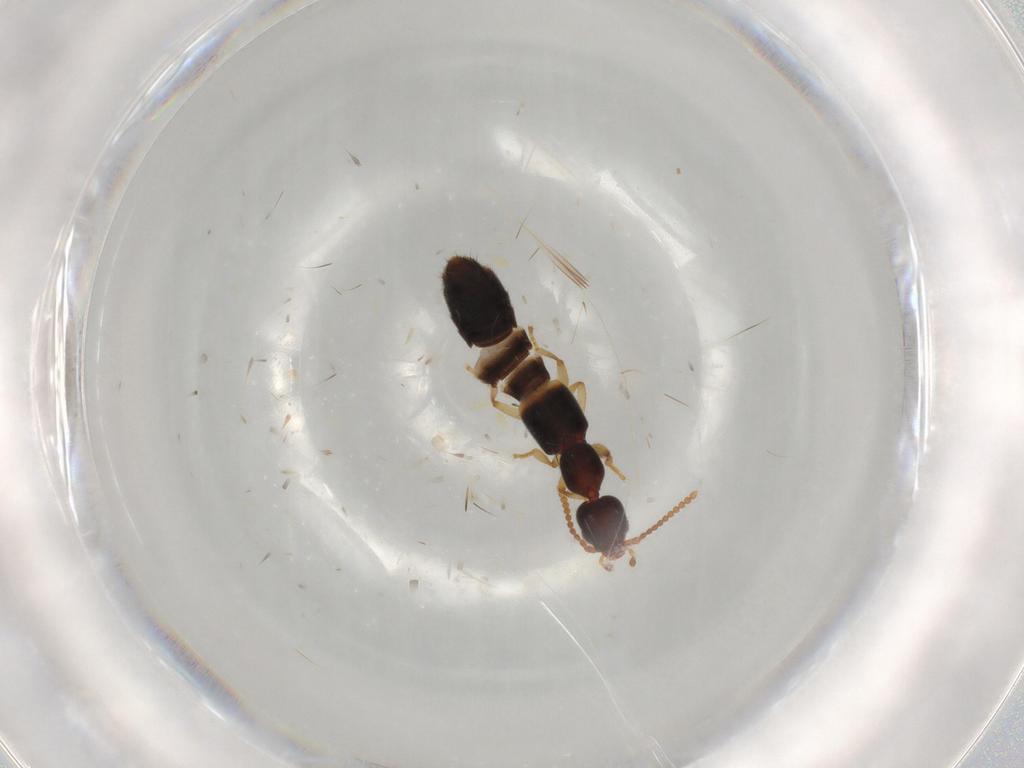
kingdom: Animalia
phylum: Arthropoda
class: Insecta
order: Coleoptera
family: Staphylinidae
